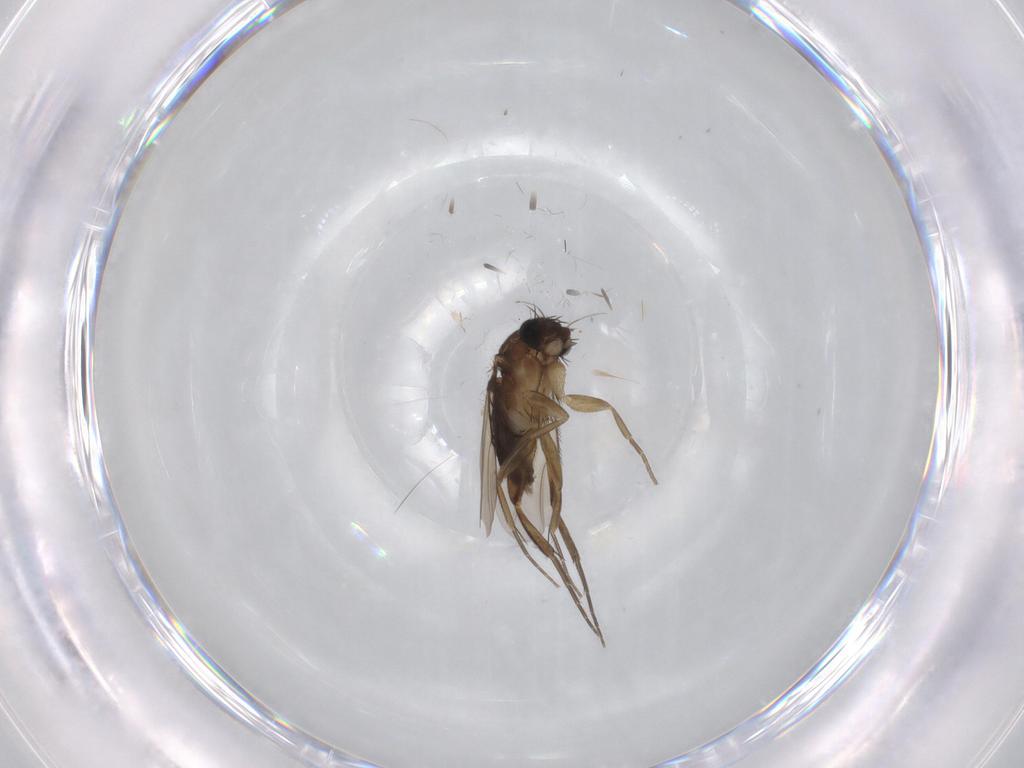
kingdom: Animalia
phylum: Arthropoda
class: Insecta
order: Diptera
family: Phoridae
